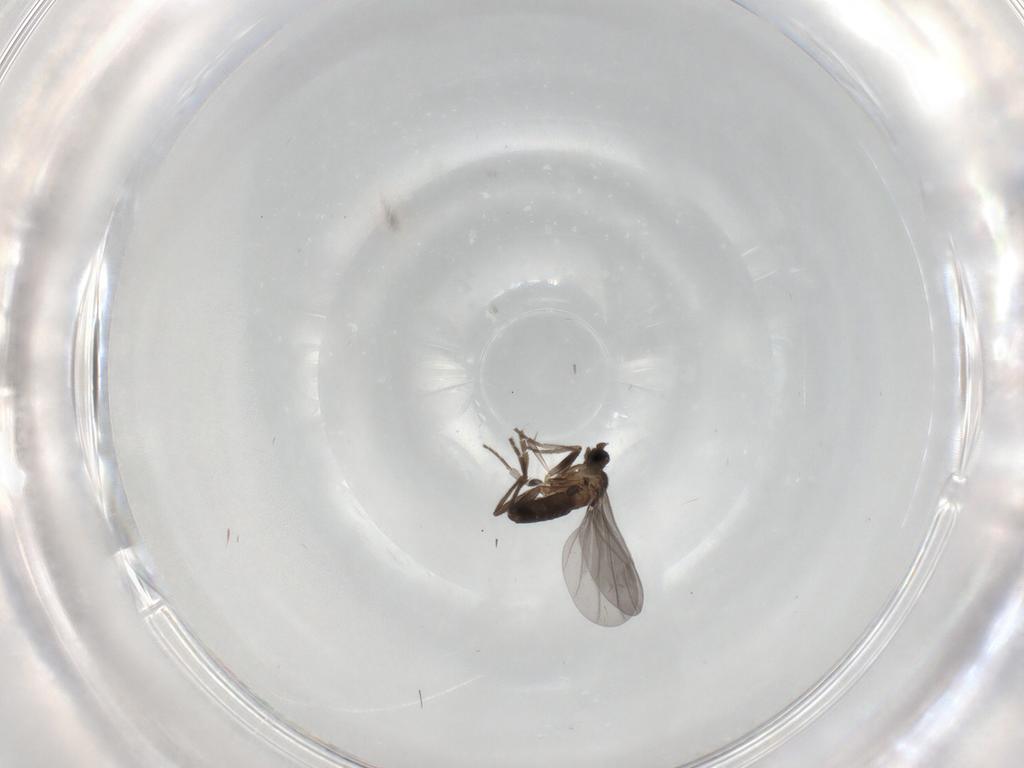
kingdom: Animalia
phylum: Arthropoda
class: Insecta
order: Diptera
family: Phoridae
